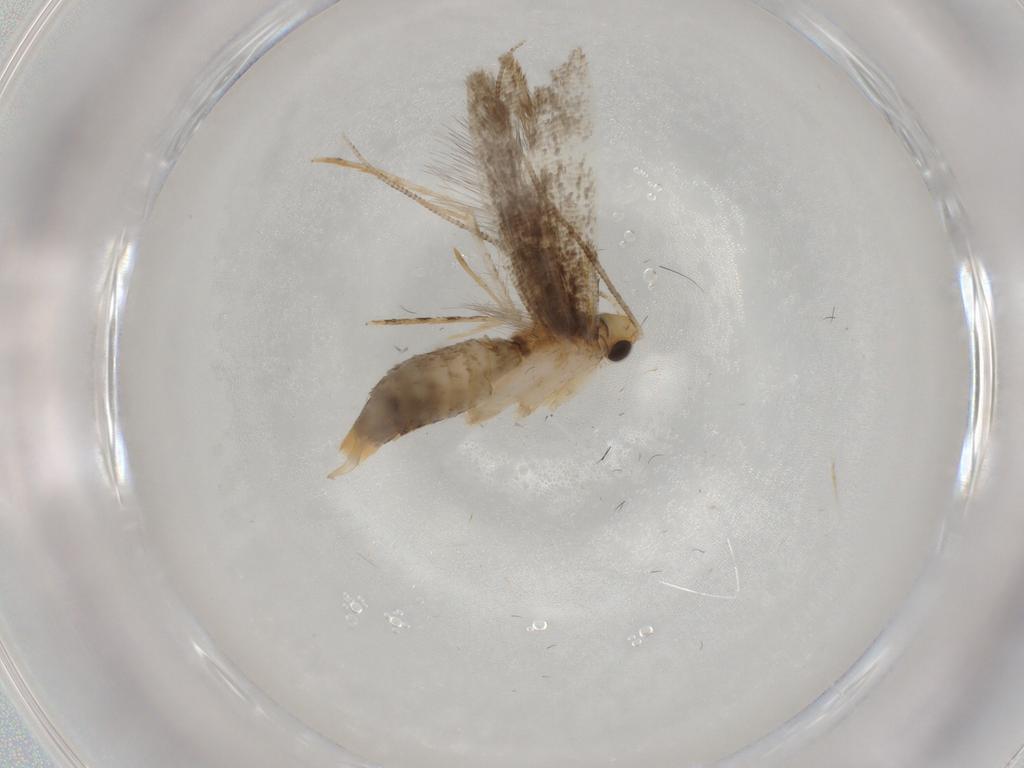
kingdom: Animalia
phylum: Arthropoda
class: Insecta
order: Lepidoptera
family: Tineidae
